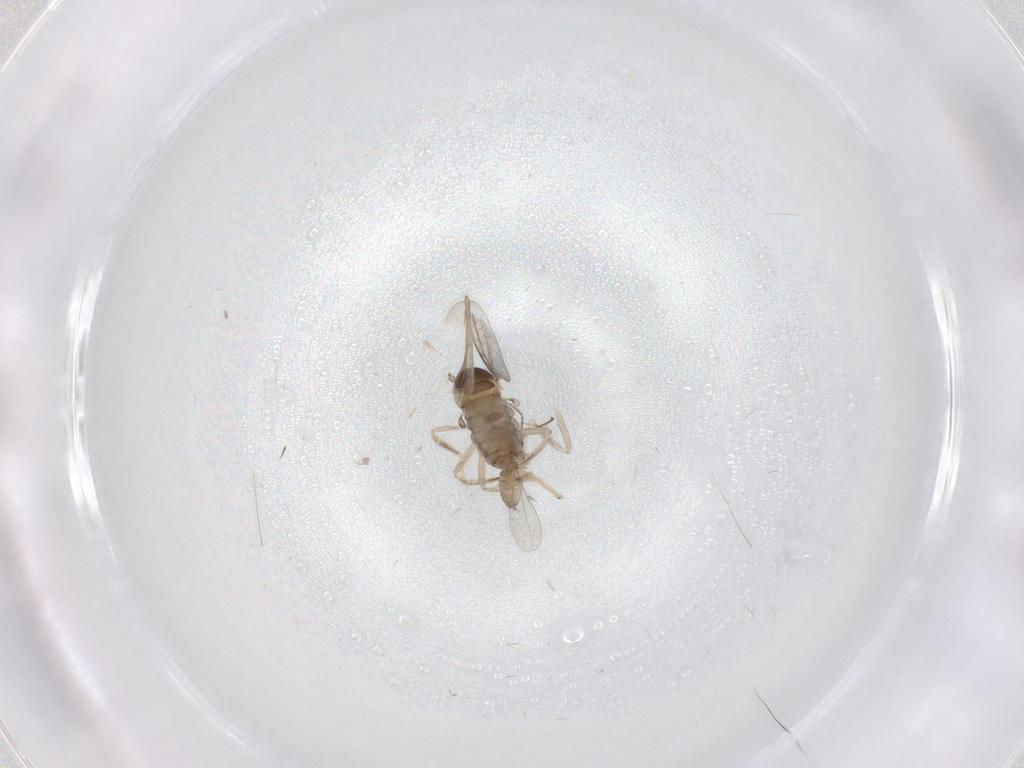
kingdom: Animalia
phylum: Arthropoda
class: Insecta
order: Diptera
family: Cecidomyiidae
